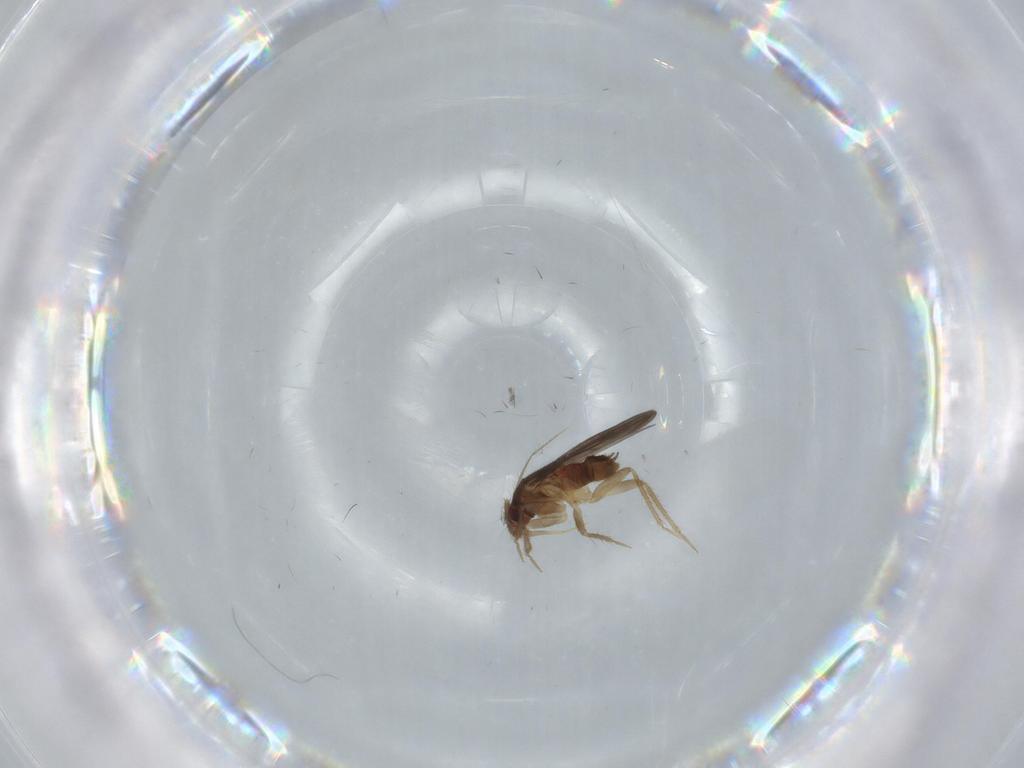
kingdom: Animalia
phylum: Arthropoda
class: Insecta
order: Hemiptera
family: Ceratocombidae
